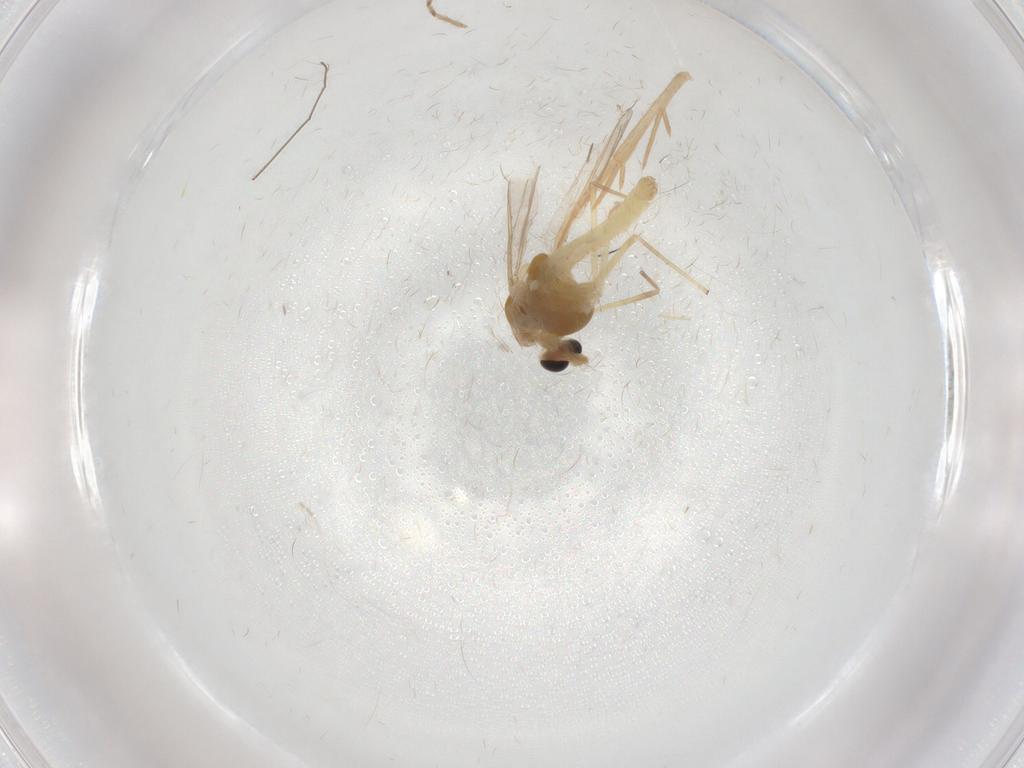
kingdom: Animalia
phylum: Arthropoda
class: Insecta
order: Diptera
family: Chironomidae
